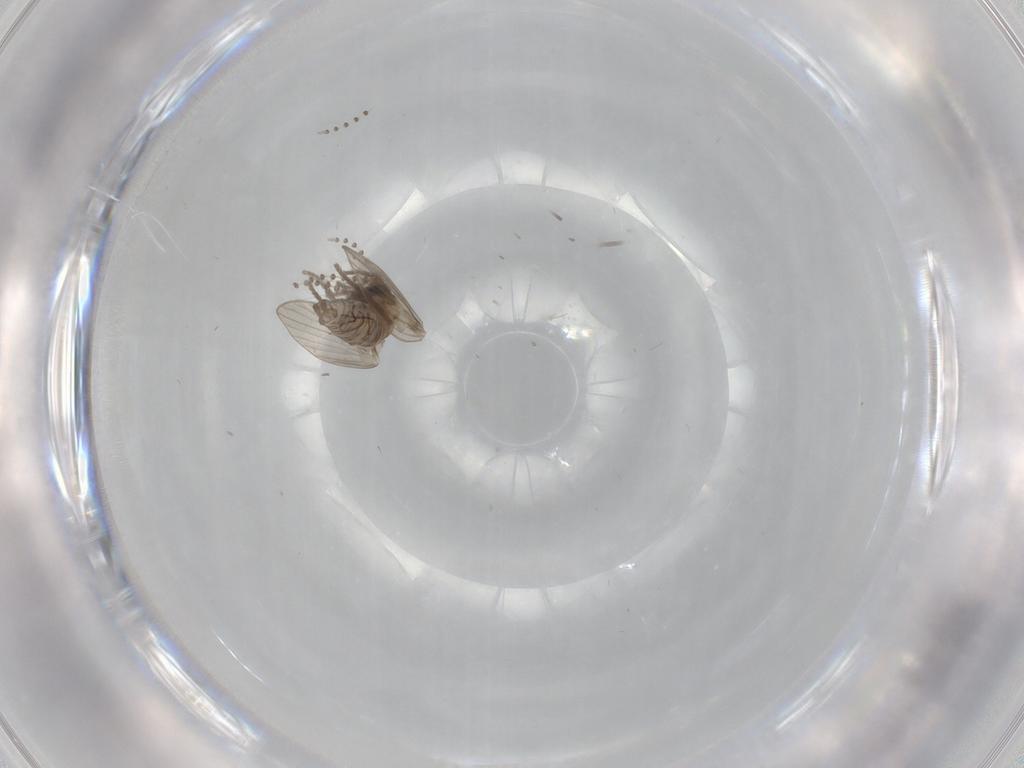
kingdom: Animalia
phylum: Arthropoda
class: Insecta
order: Diptera
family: Psychodidae
